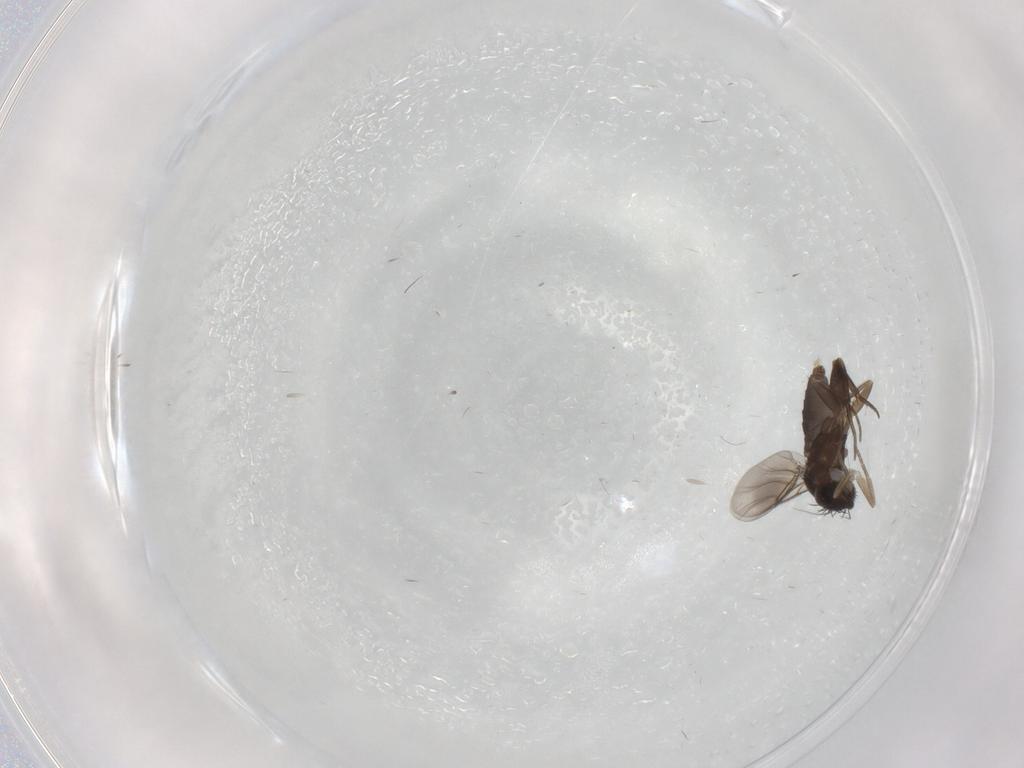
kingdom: Animalia
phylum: Arthropoda
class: Insecta
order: Diptera
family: Phoridae
